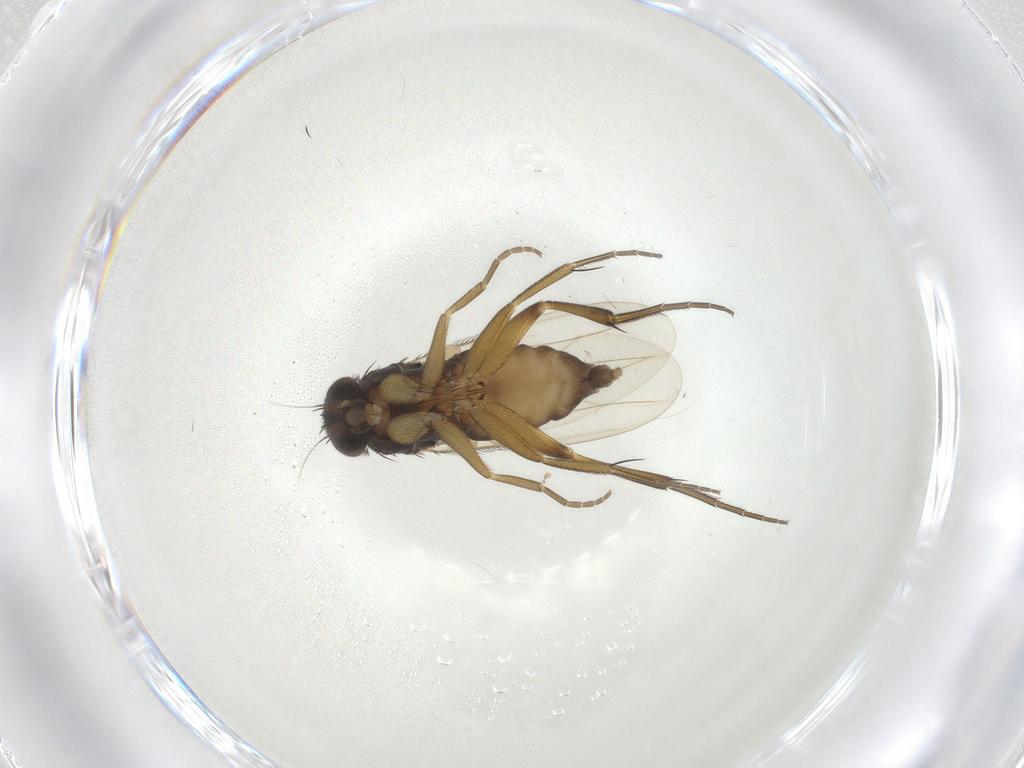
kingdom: Animalia
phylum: Arthropoda
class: Insecta
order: Diptera
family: Phoridae
